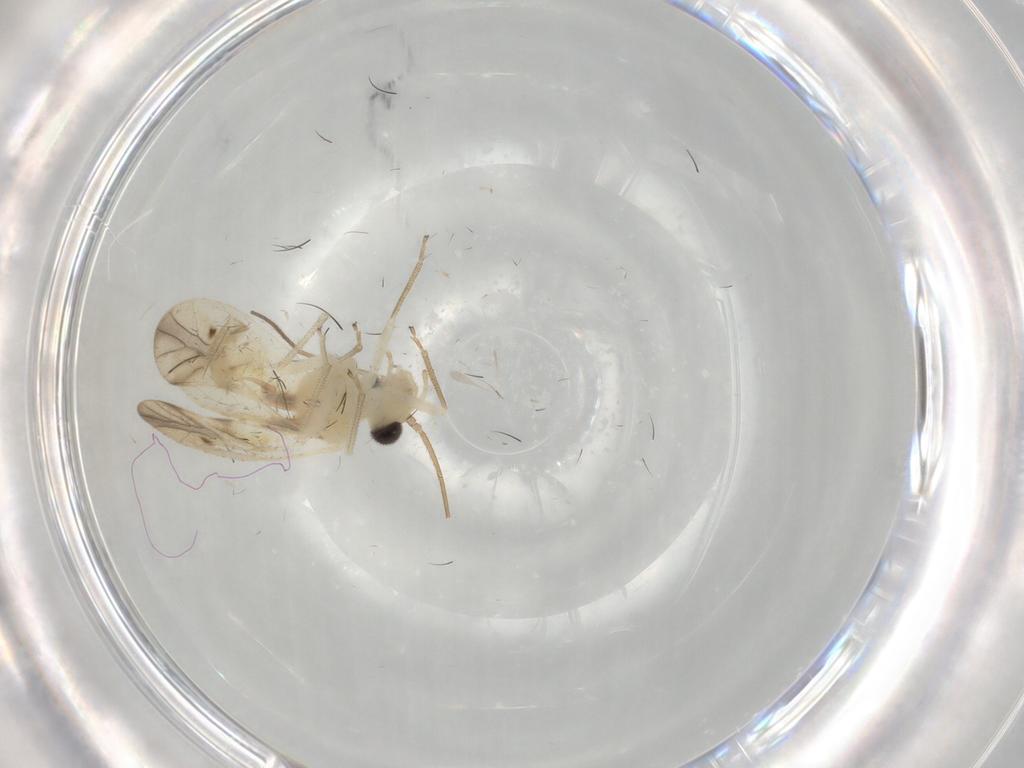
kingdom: Animalia
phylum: Arthropoda
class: Insecta
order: Psocodea
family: Caeciliusidae
